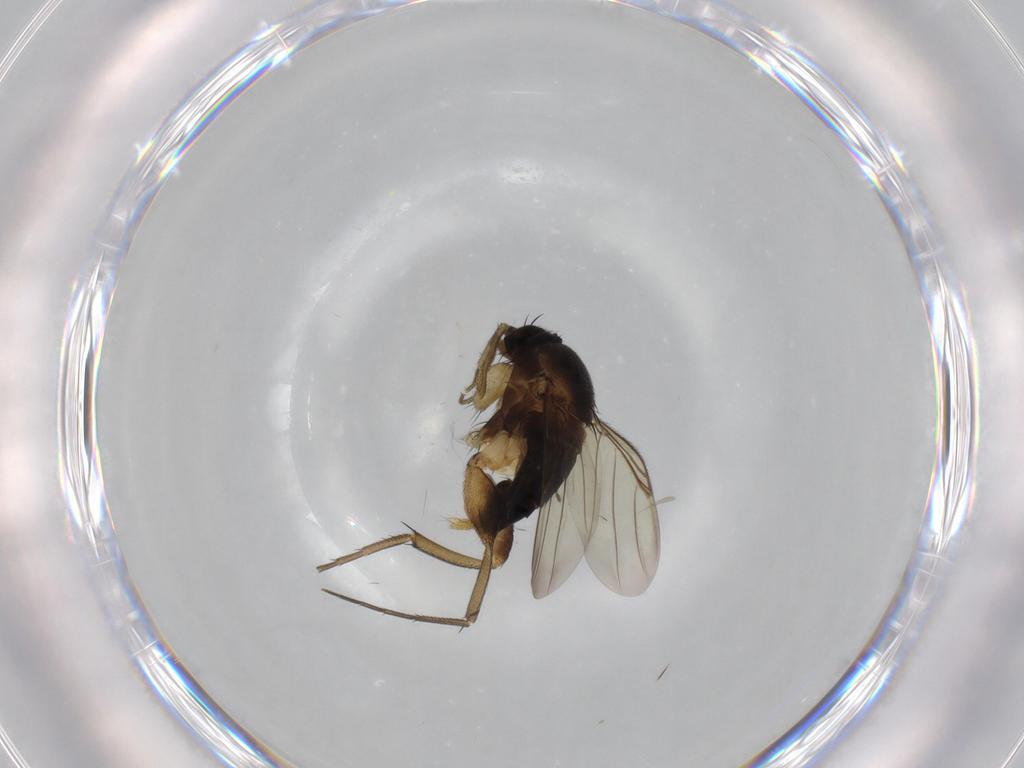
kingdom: Animalia
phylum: Arthropoda
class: Insecta
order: Diptera
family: Phoridae
